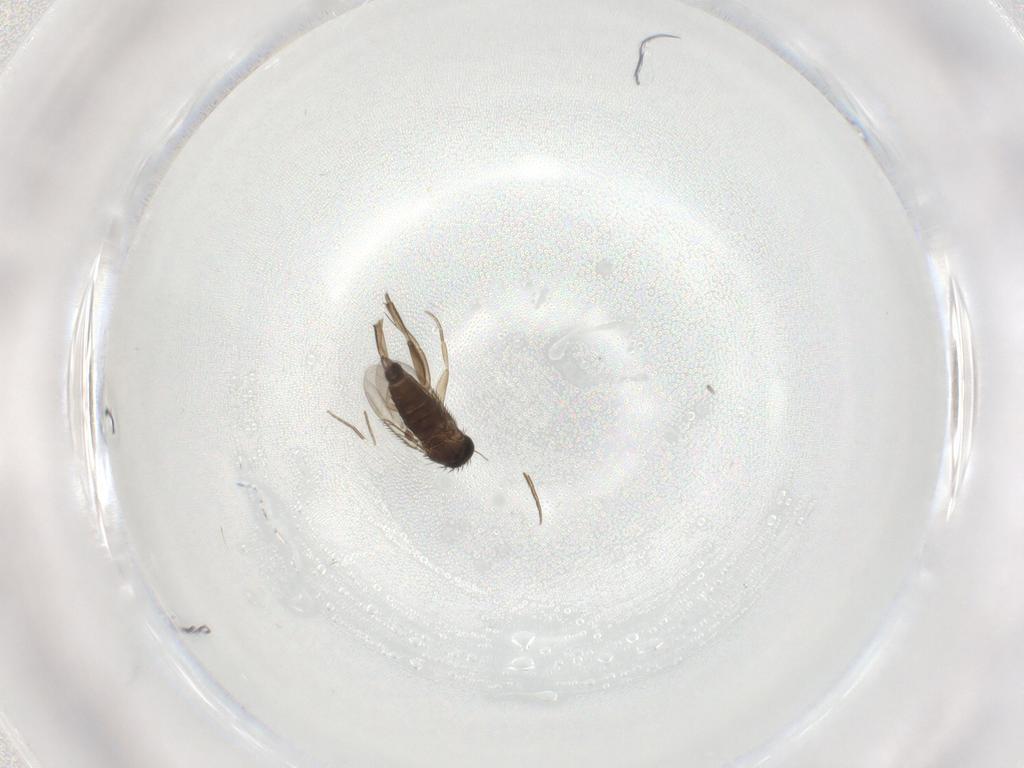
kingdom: Animalia
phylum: Arthropoda
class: Insecta
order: Diptera
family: Phoridae
